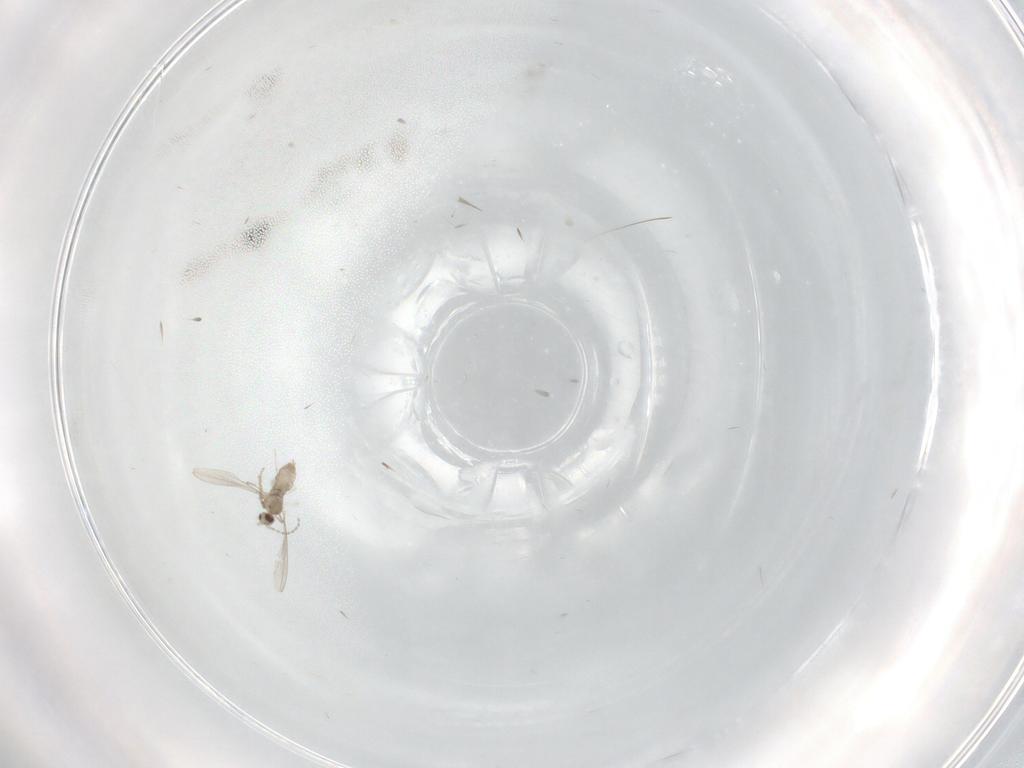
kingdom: Animalia
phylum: Arthropoda
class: Insecta
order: Diptera
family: Phoridae
